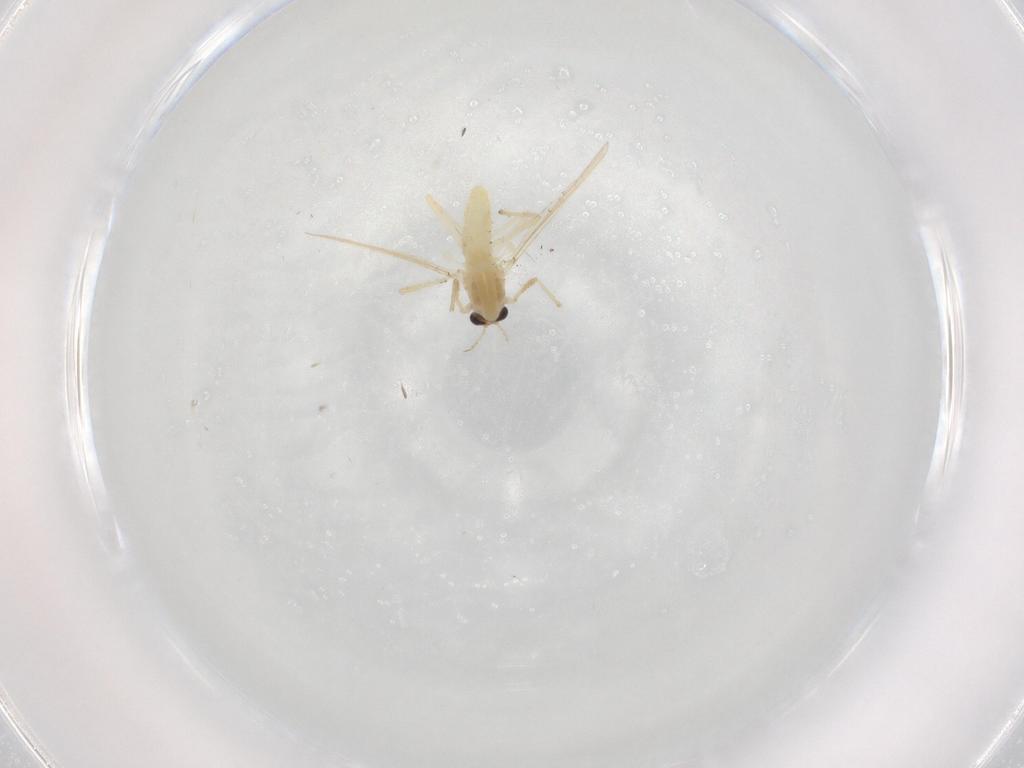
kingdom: Animalia
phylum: Arthropoda
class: Insecta
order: Diptera
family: Chironomidae
